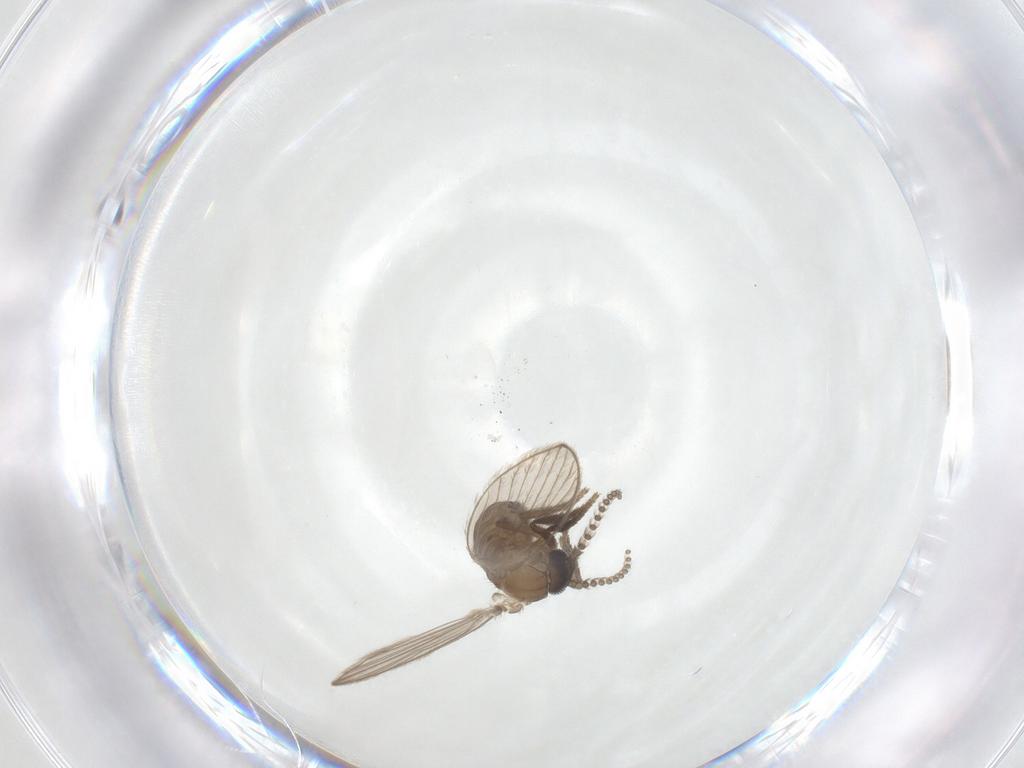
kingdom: Animalia
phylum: Arthropoda
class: Insecta
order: Diptera
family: Psychodidae
